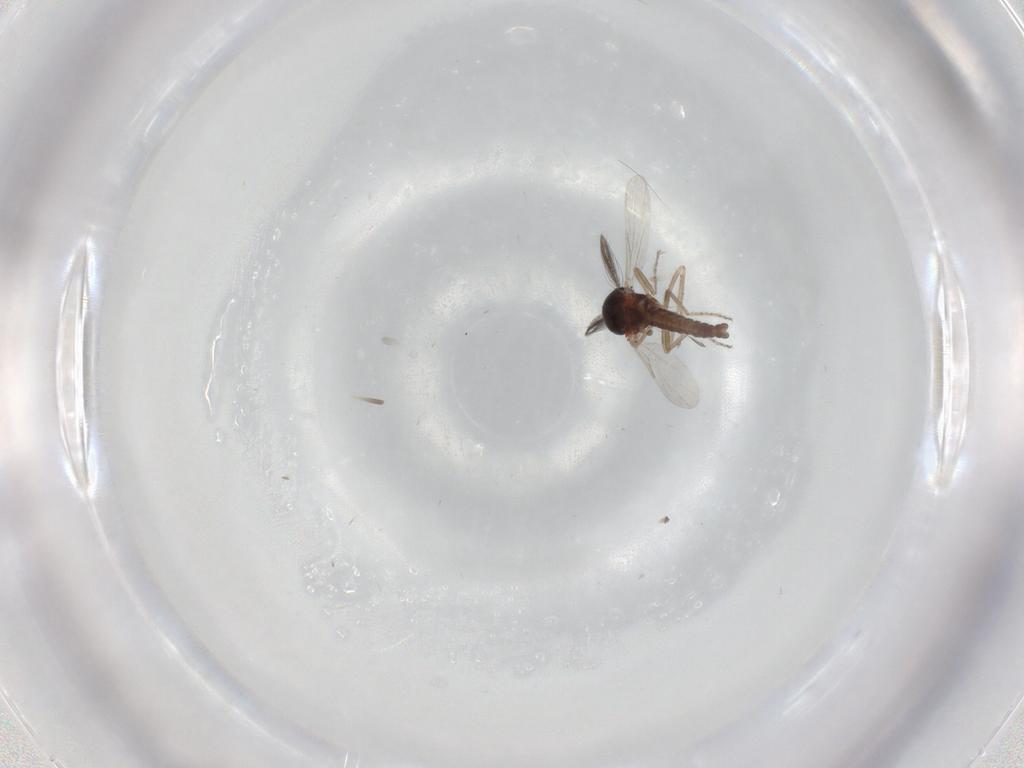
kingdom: Animalia
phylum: Arthropoda
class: Insecta
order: Diptera
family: Ceratopogonidae
